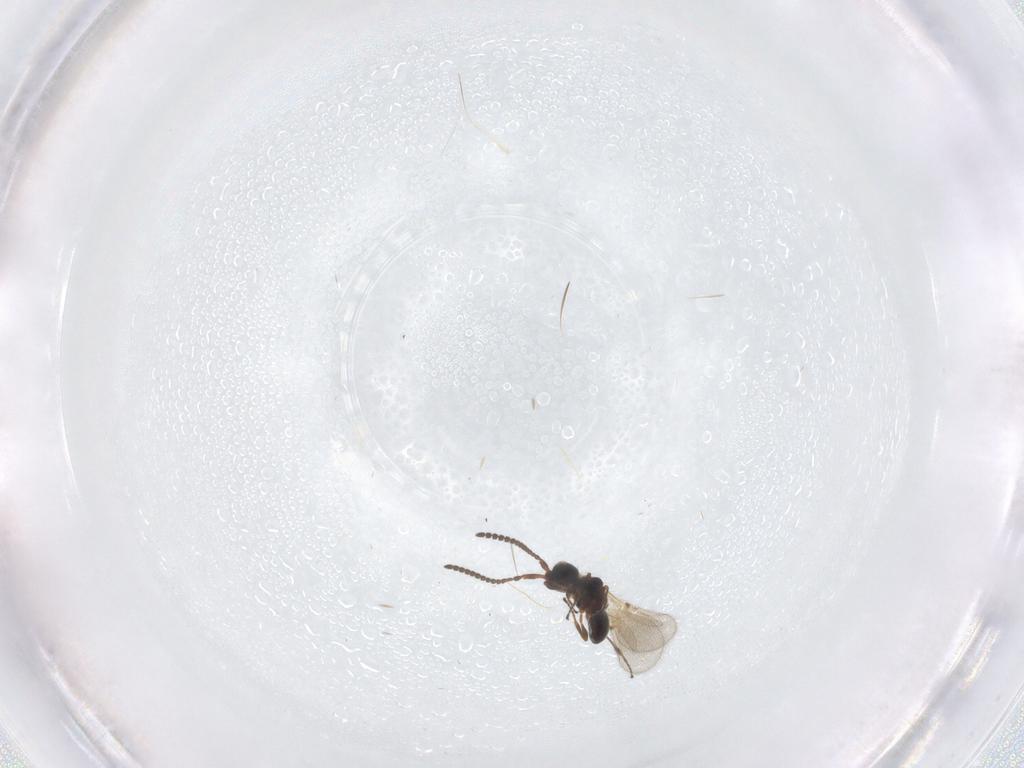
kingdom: Animalia
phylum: Arthropoda
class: Insecta
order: Hymenoptera
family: Diapriidae
